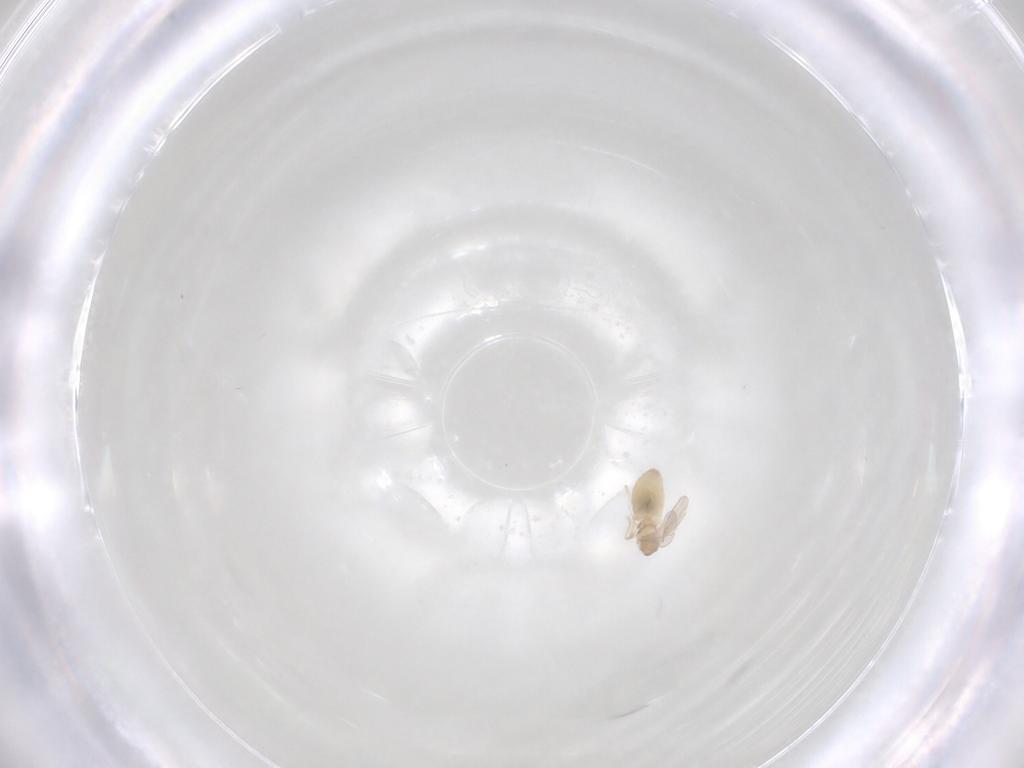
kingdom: Animalia
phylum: Arthropoda
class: Insecta
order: Diptera
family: Cecidomyiidae
